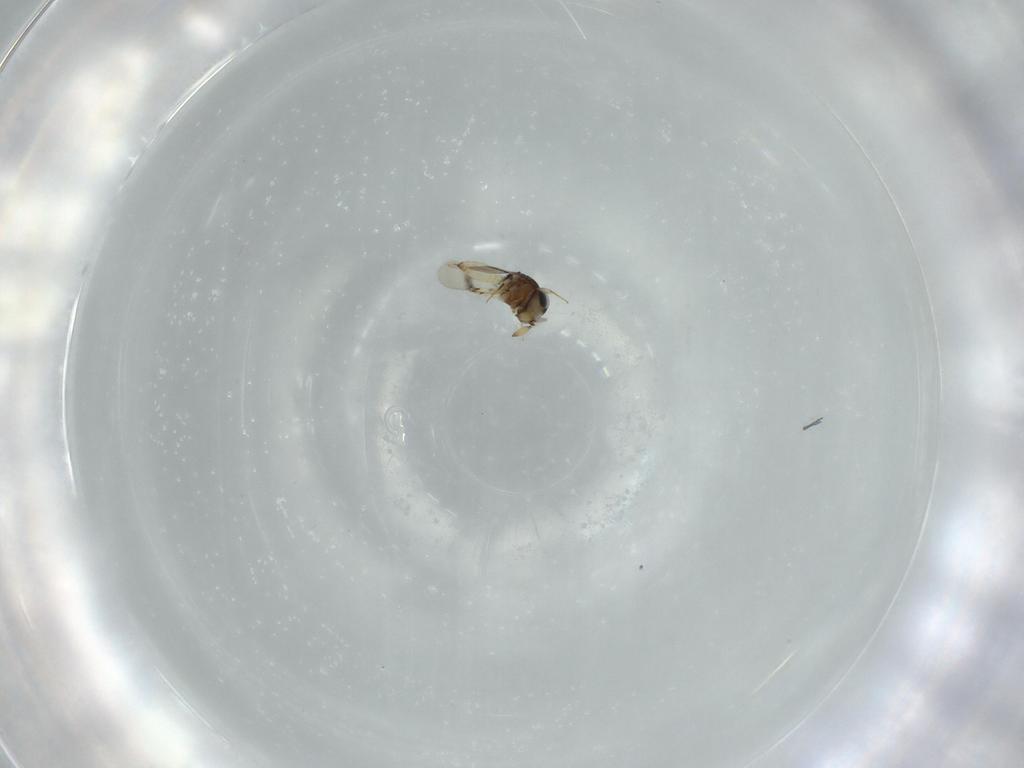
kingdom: Animalia
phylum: Arthropoda
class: Insecta
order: Hymenoptera
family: Scelionidae
